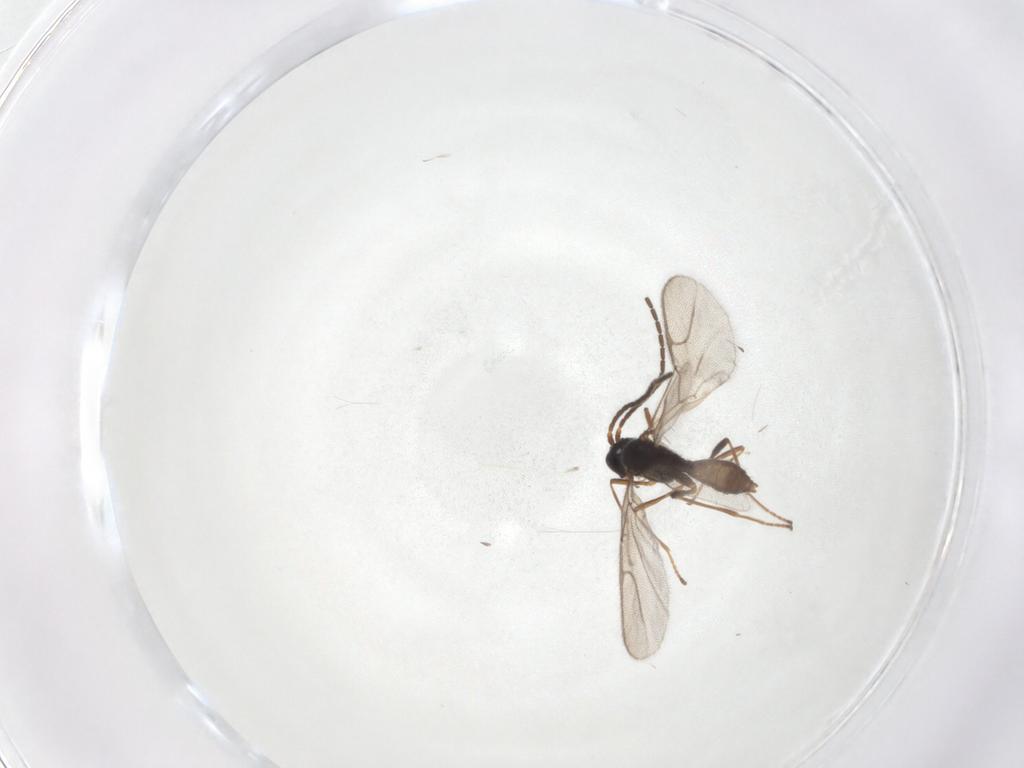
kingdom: Animalia
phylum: Arthropoda
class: Insecta
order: Hymenoptera
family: Braconidae
